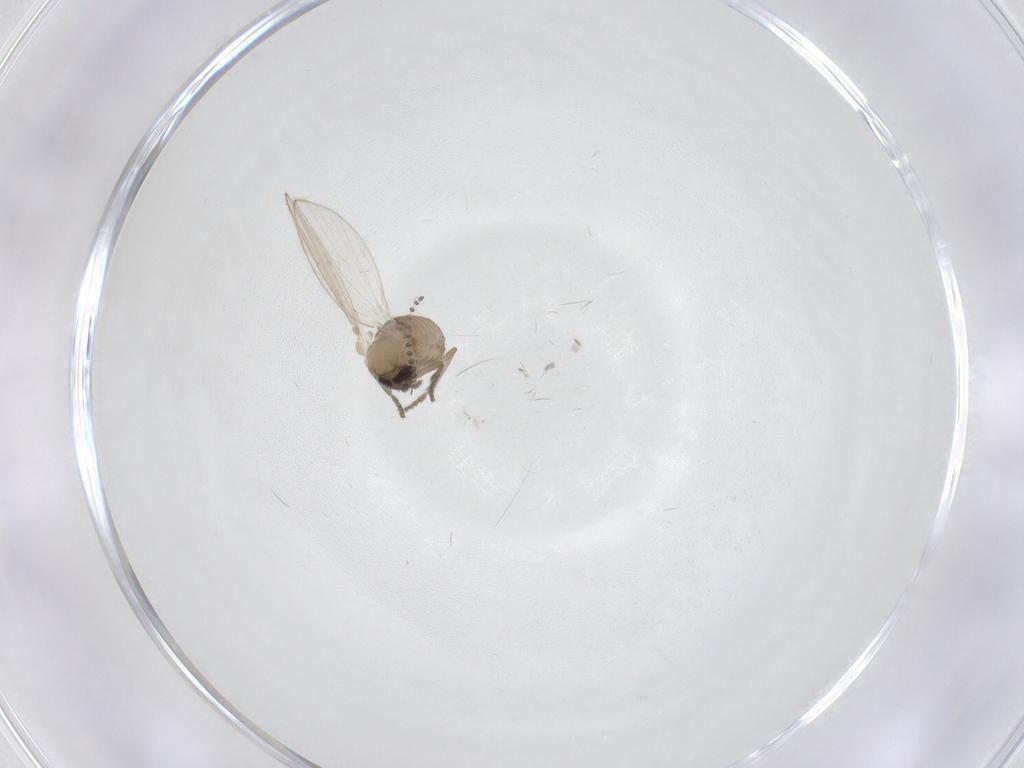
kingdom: Animalia
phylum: Arthropoda
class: Insecta
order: Diptera
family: Psychodidae
